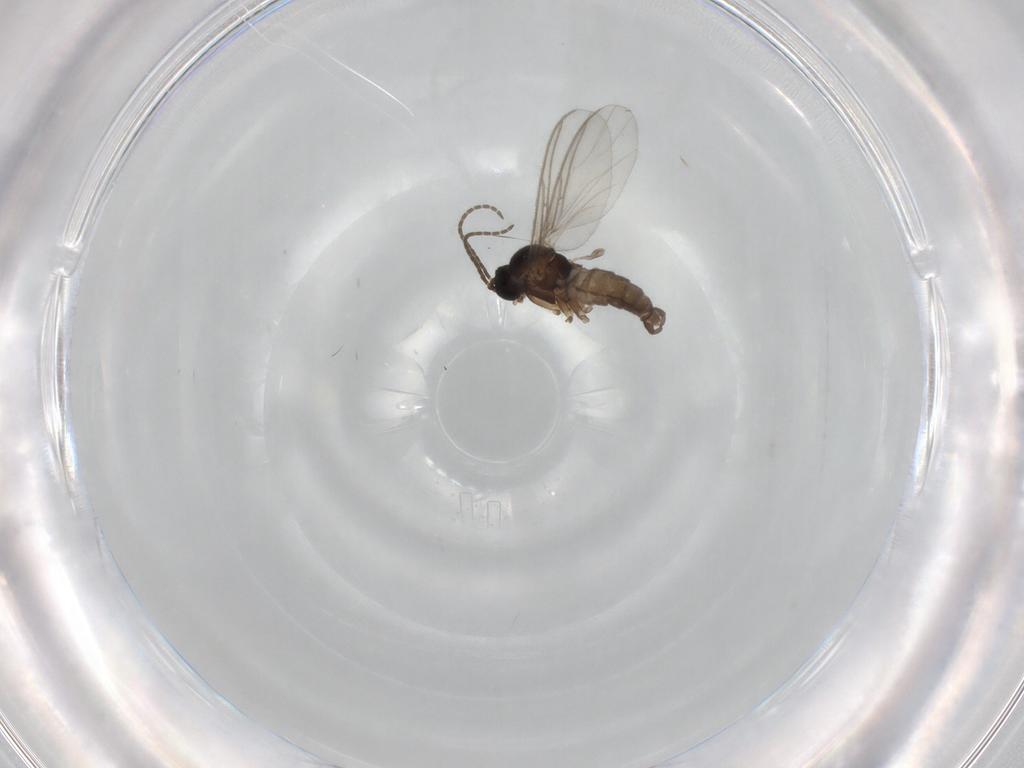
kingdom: Animalia
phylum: Arthropoda
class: Insecta
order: Diptera
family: Sciaridae
